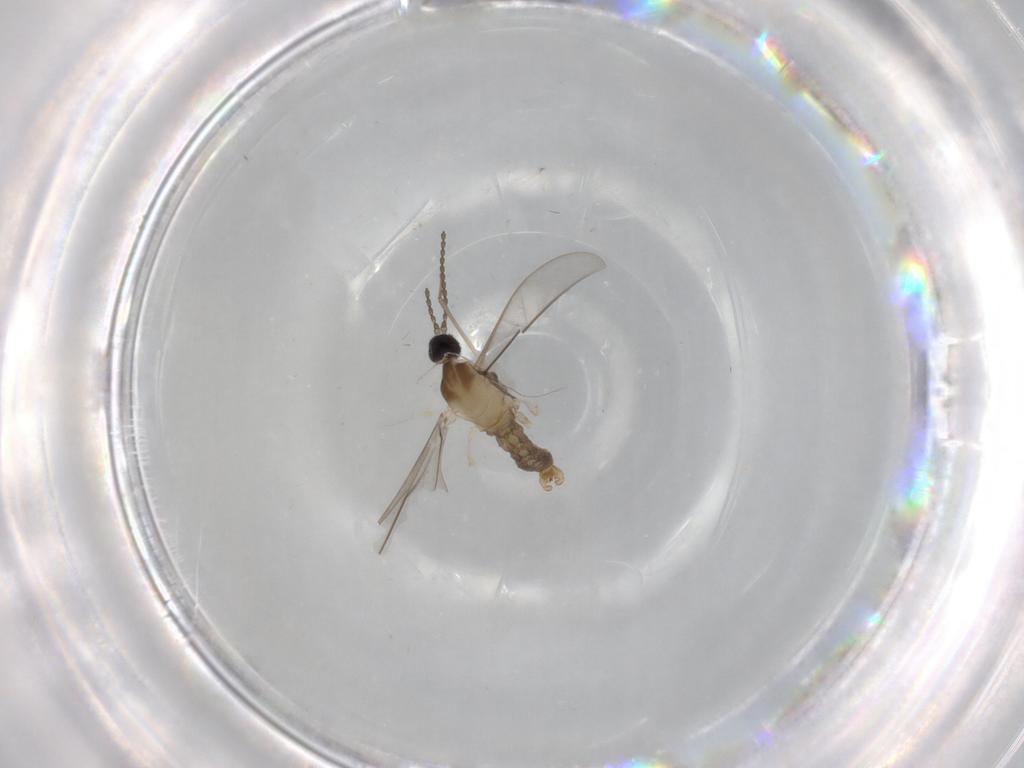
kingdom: Animalia
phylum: Arthropoda
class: Insecta
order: Diptera
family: Cecidomyiidae
